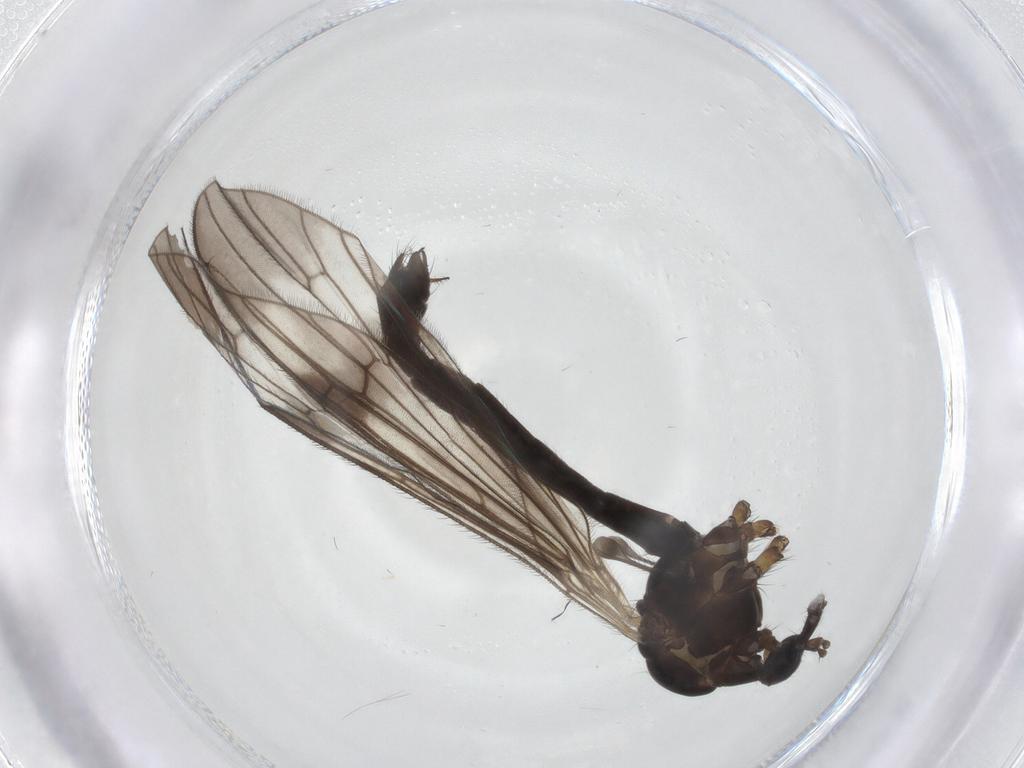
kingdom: Animalia
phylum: Arthropoda
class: Insecta
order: Diptera
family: Limoniidae
